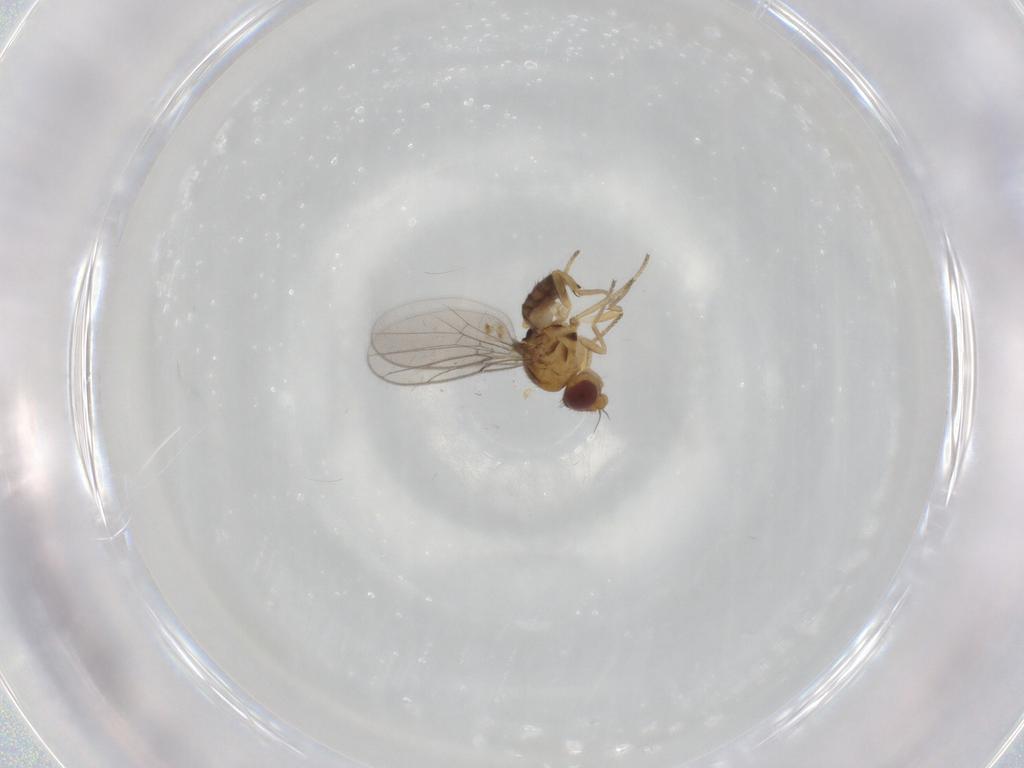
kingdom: Animalia
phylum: Arthropoda
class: Insecta
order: Diptera
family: Chloropidae
